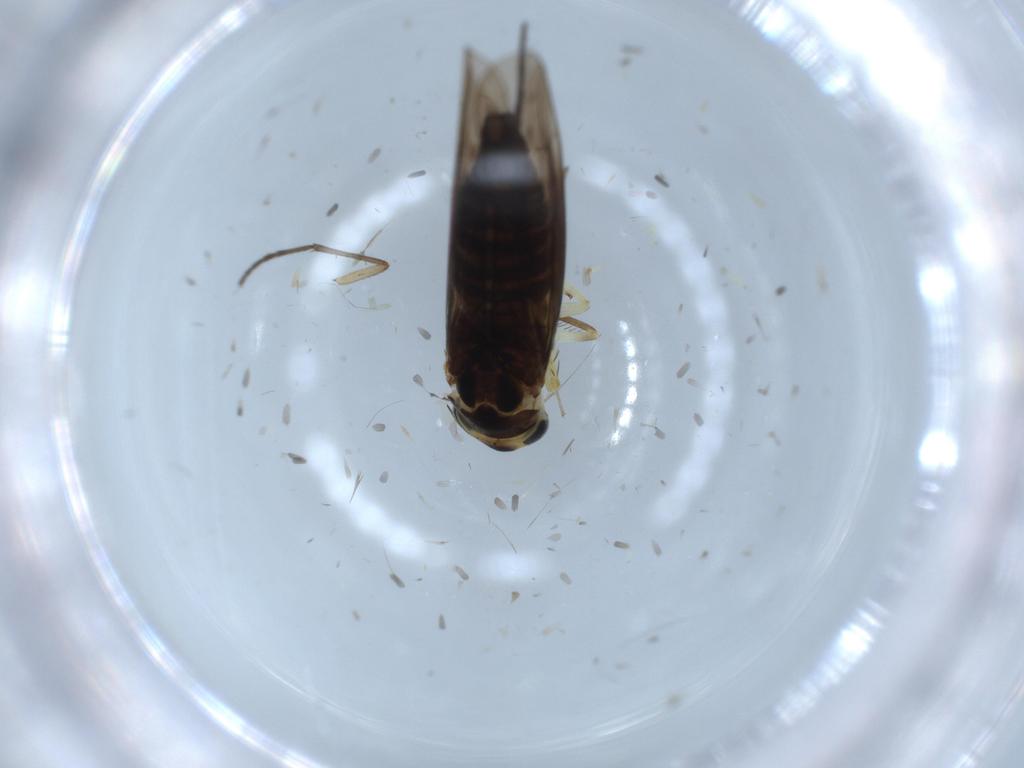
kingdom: Animalia
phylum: Arthropoda
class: Insecta
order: Hemiptera
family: Cicadellidae
